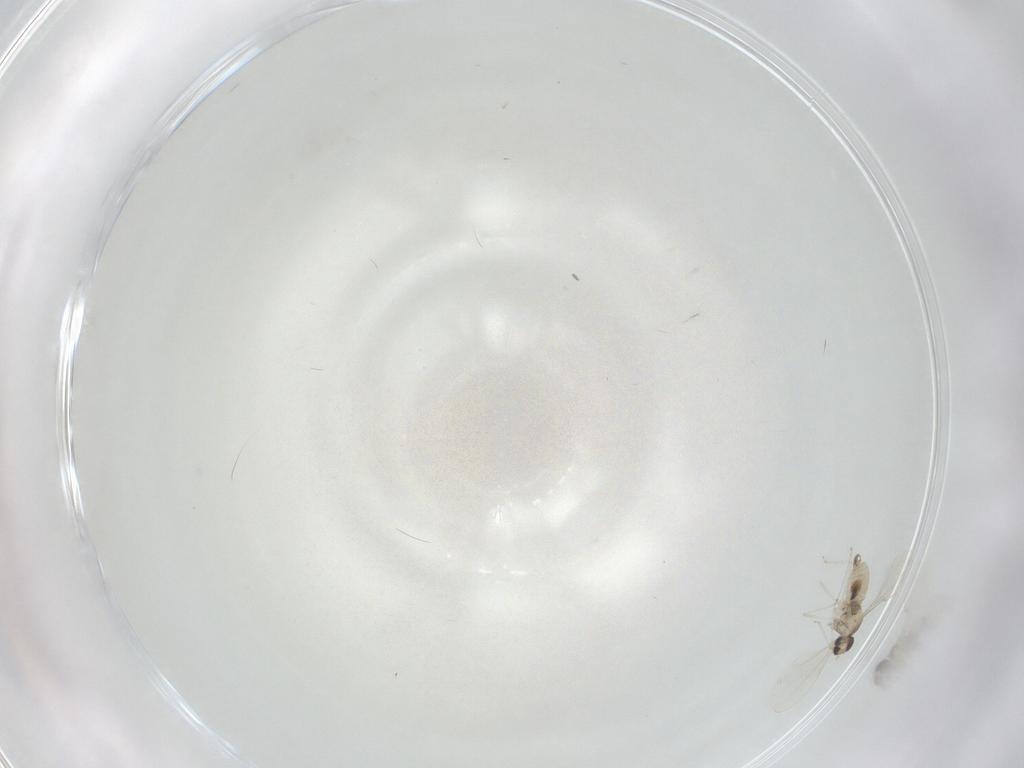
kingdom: Animalia
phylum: Arthropoda
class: Insecta
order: Diptera
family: Cecidomyiidae
